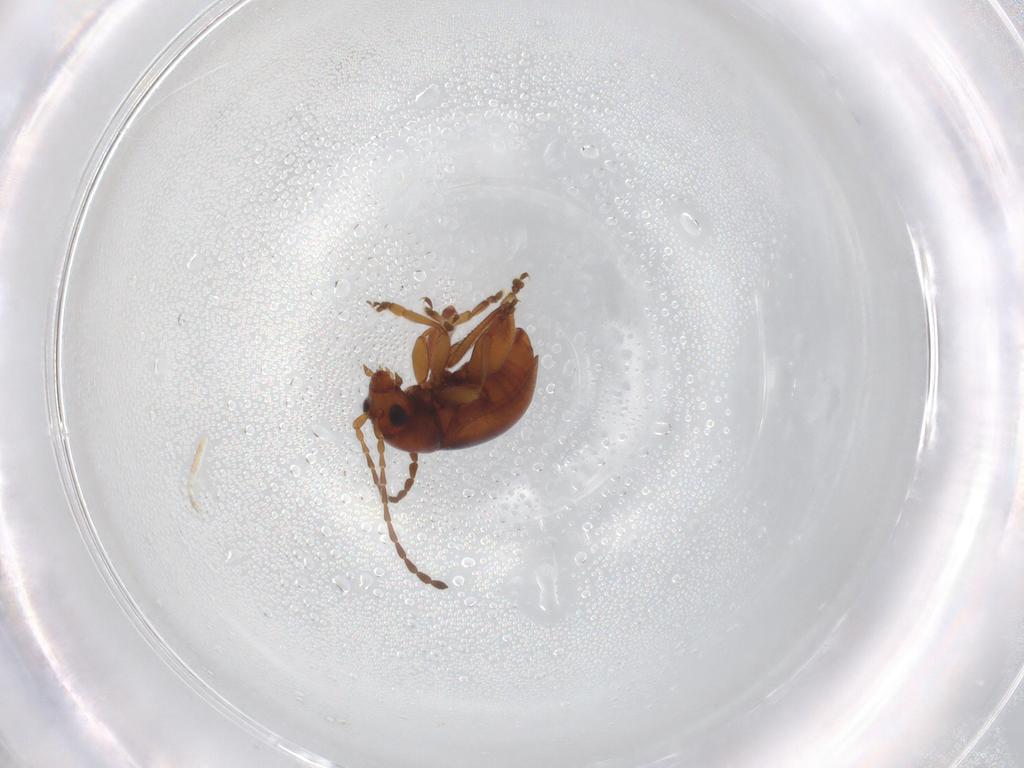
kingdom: Animalia
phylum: Arthropoda
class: Insecta
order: Coleoptera
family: Chrysomelidae
